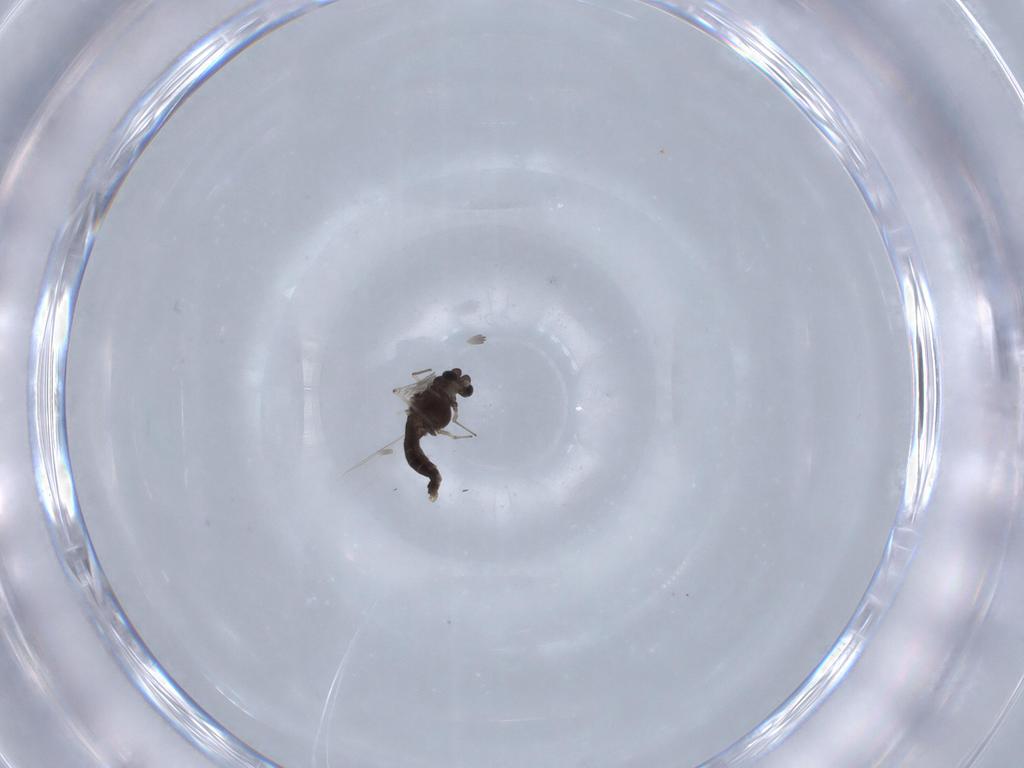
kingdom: Animalia
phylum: Arthropoda
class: Insecta
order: Diptera
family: Chironomidae
